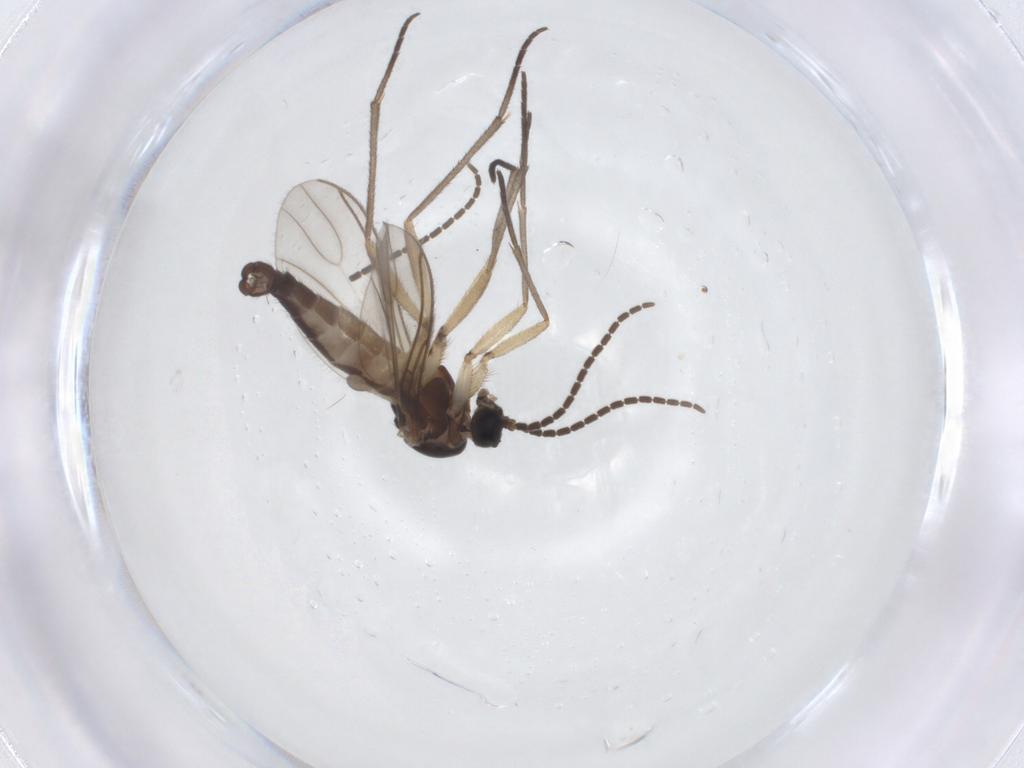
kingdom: Animalia
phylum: Arthropoda
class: Insecta
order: Diptera
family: Sciaridae
